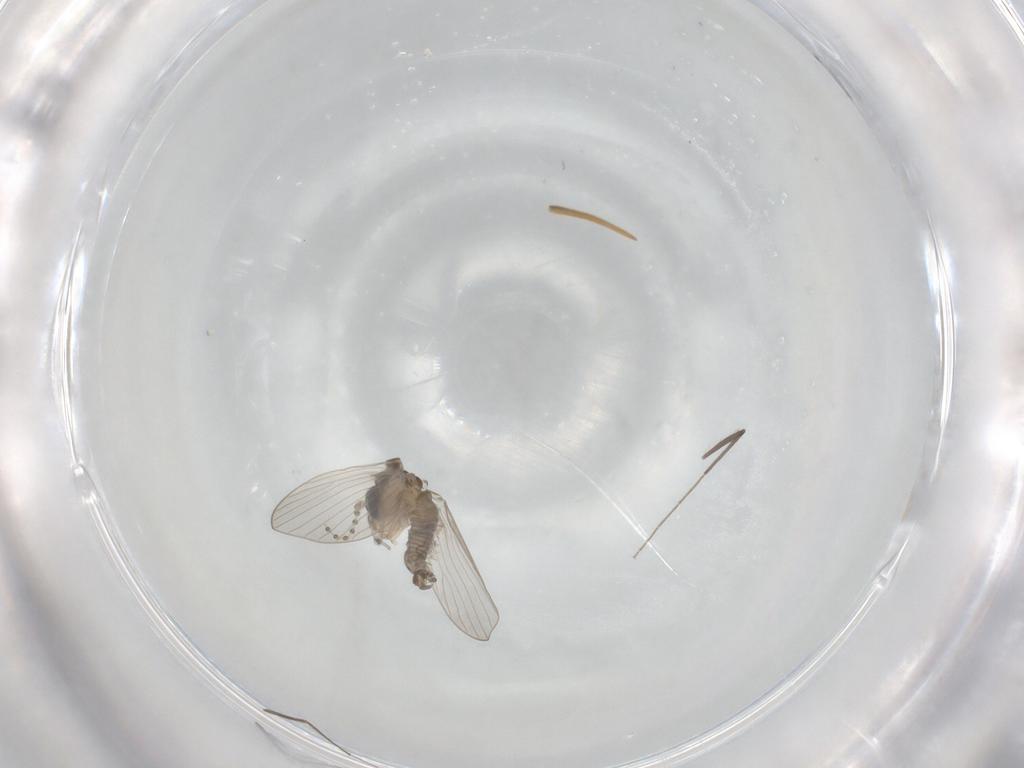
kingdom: Animalia
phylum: Arthropoda
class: Insecta
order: Diptera
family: Psychodidae
